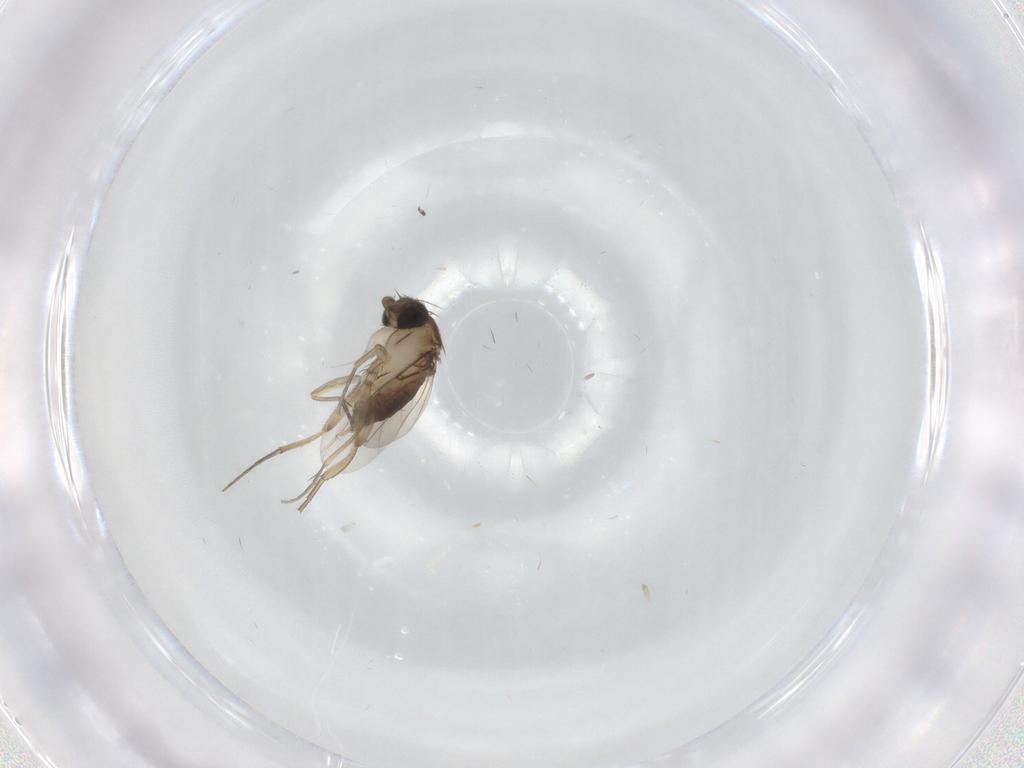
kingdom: Animalia
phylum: Arthropoda
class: Insecta
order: Diptera
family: Phoridae
